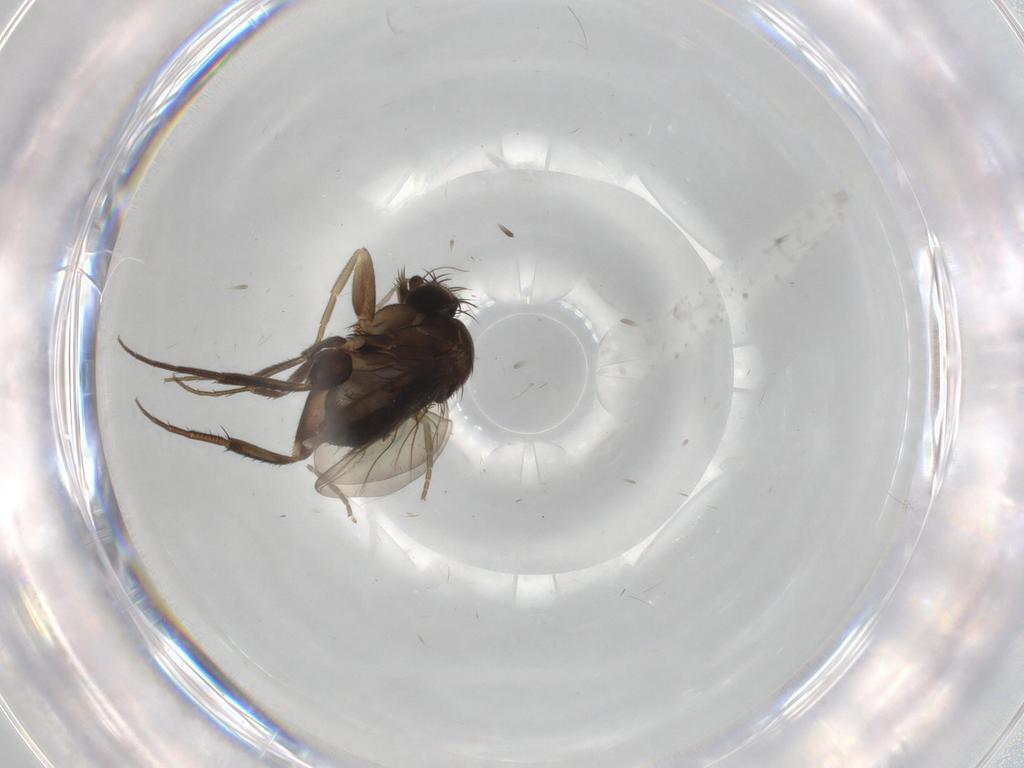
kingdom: Animalia
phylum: Arthropoda
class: Insecta
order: Diptera
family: Phoridae
